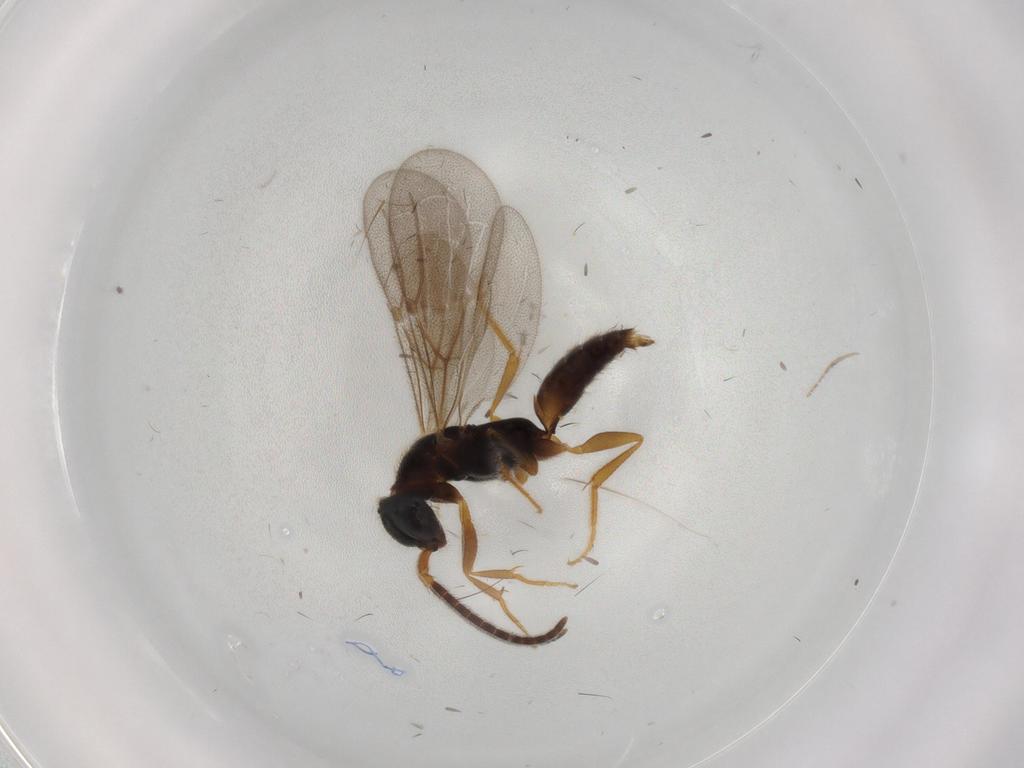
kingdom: Animalia
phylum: Arthropoda
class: Insecta
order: Hymenoptera
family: Bethylidae
